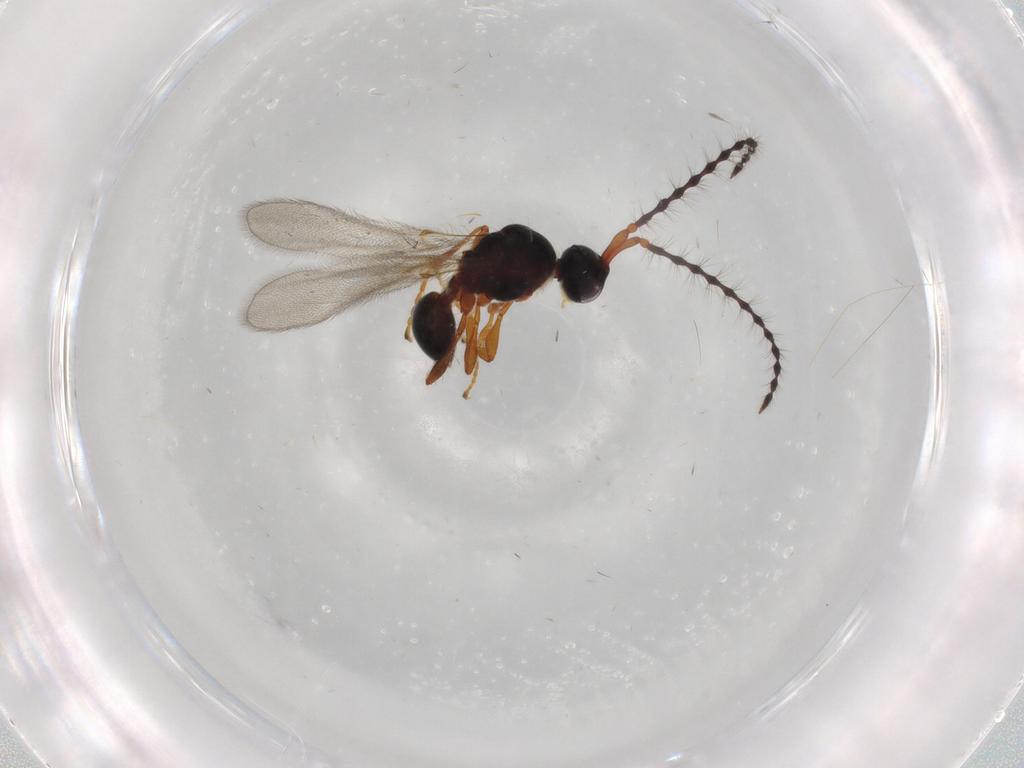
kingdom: Animalia
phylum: Arthropoda
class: Insecta
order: Hymenoptera
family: Diapriidae
